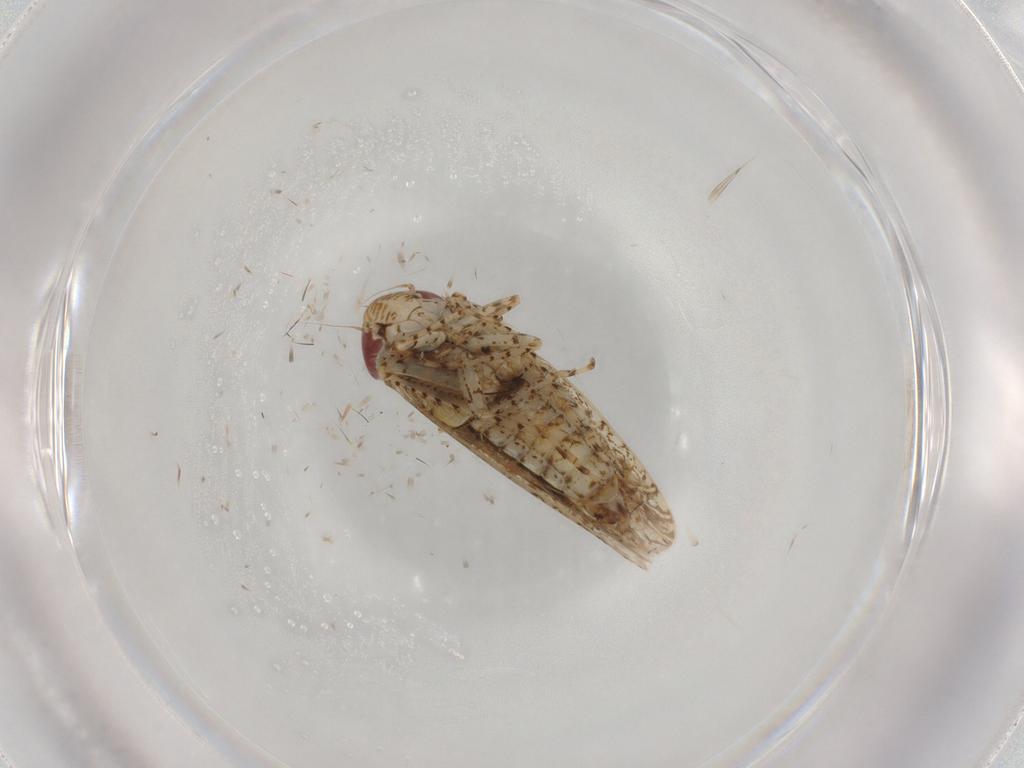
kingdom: Animalia
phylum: Arthropoda
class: Insecta
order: Hemiptera
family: Cicadellidae
